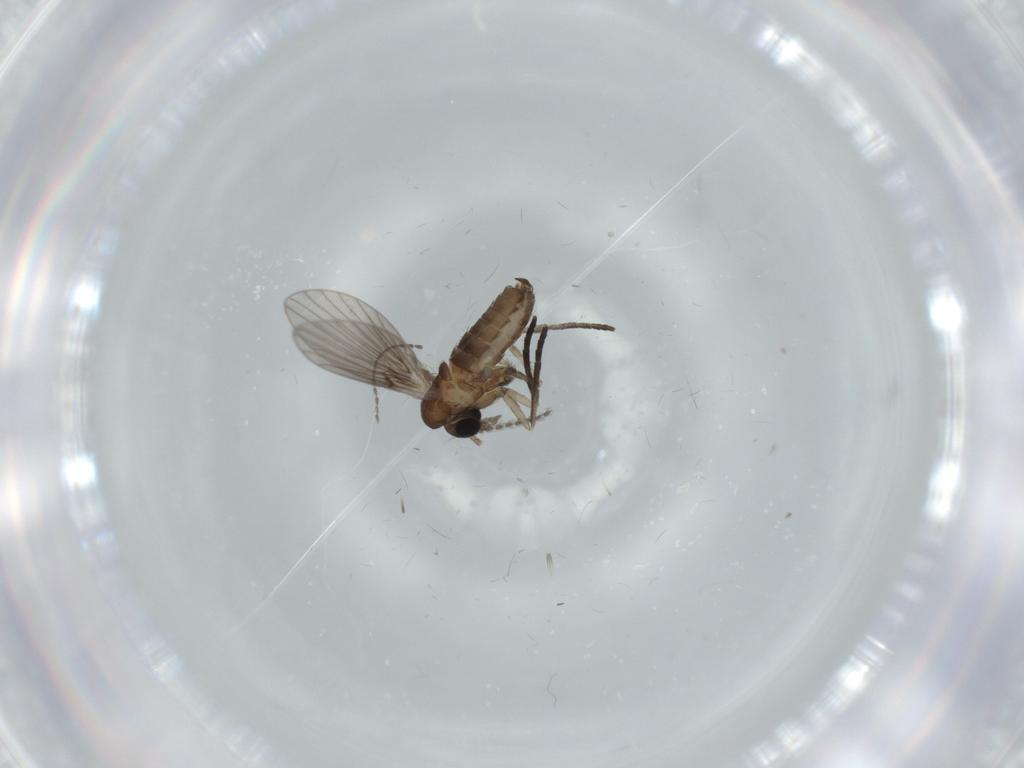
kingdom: Animalia
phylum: Arthropoda
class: Insecta
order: Diptera
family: Psychodidae
